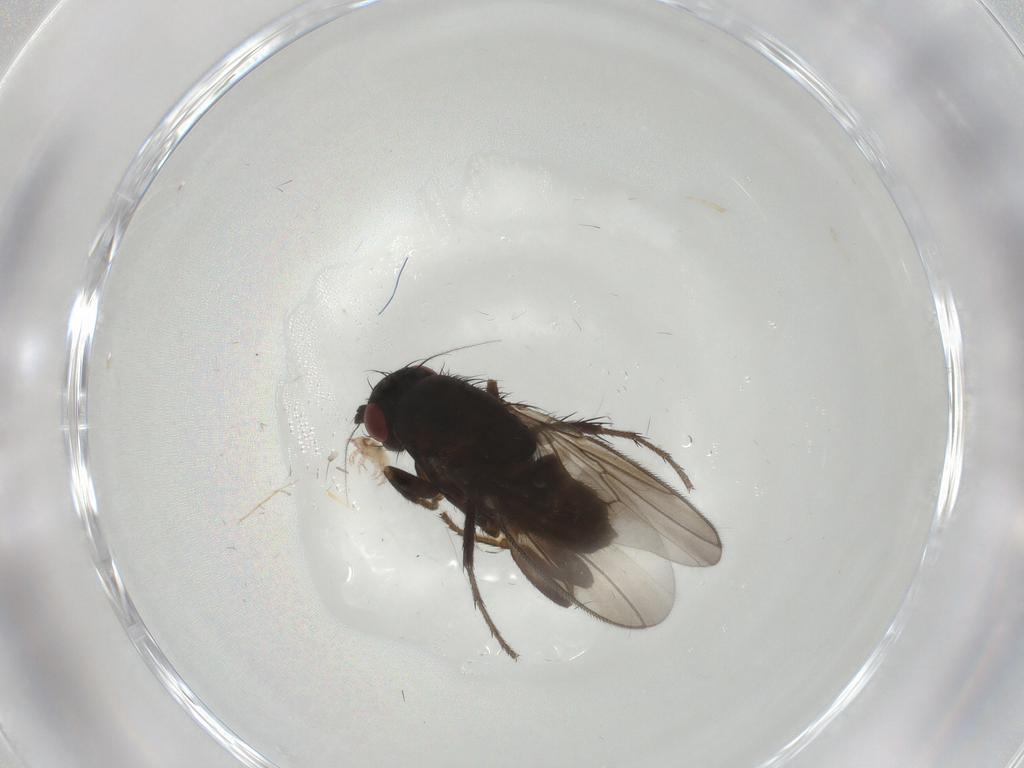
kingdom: Animalia
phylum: Arthropoda
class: Insecta
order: Diptera
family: Sphaeroceridae
